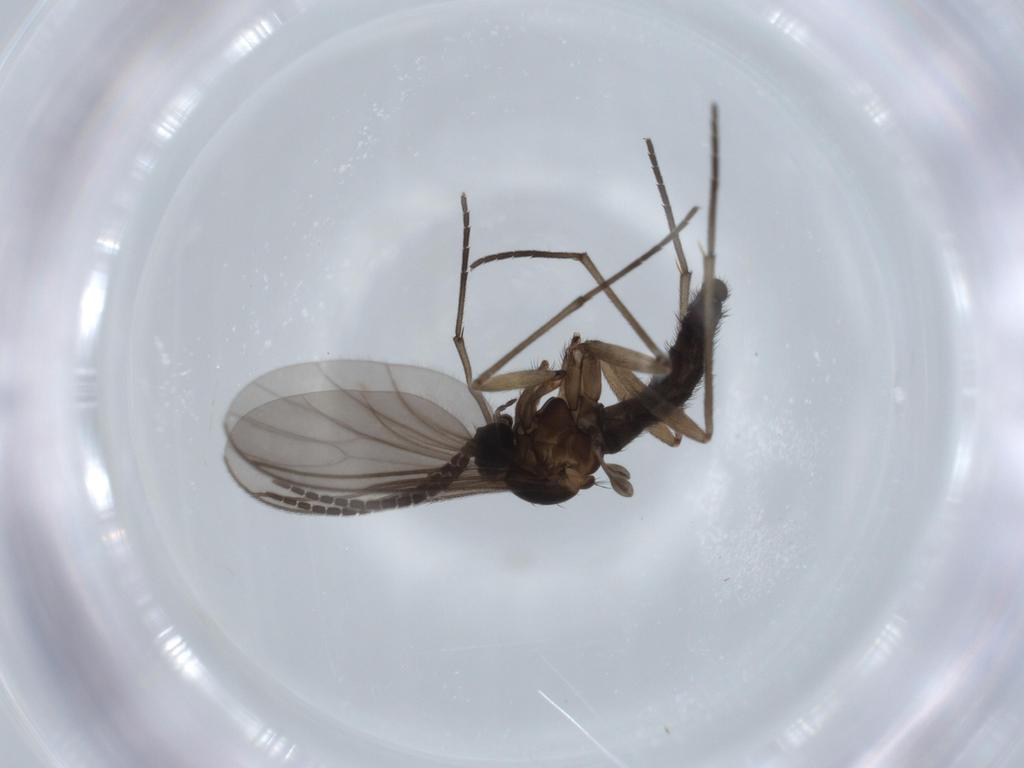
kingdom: Animalia
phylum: Arthropoda
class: Insecta
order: Diptera
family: Sciaridae
